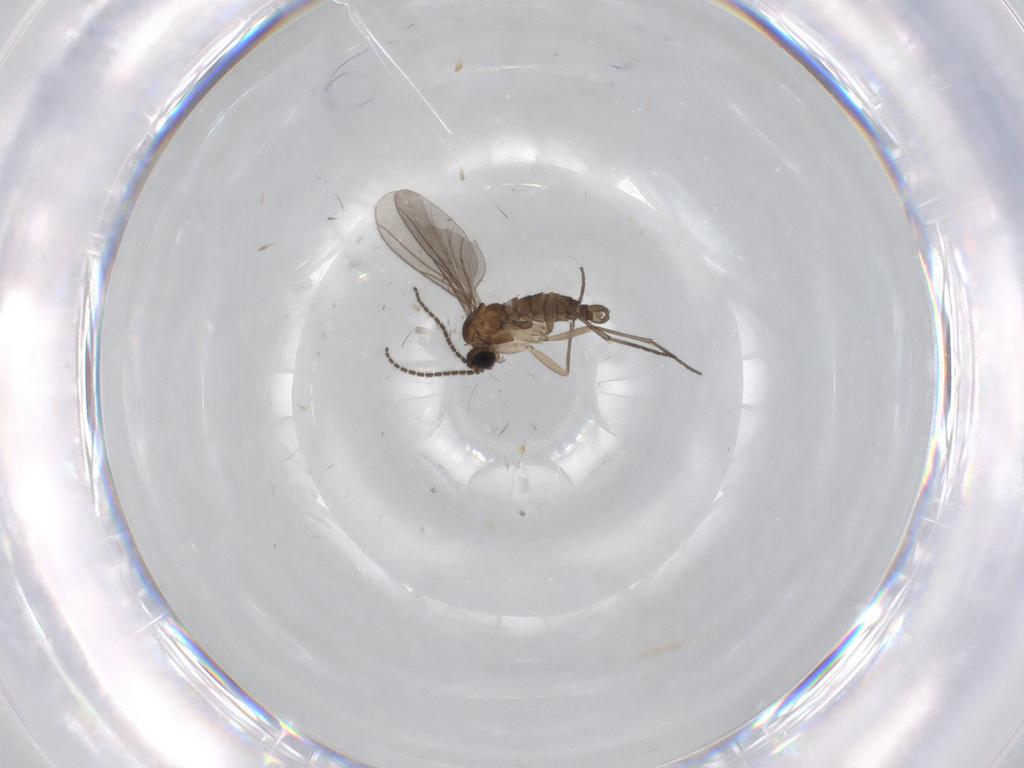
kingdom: Animalia
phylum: Arthropoda
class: Insecta
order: Diptera
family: Sciaridae
